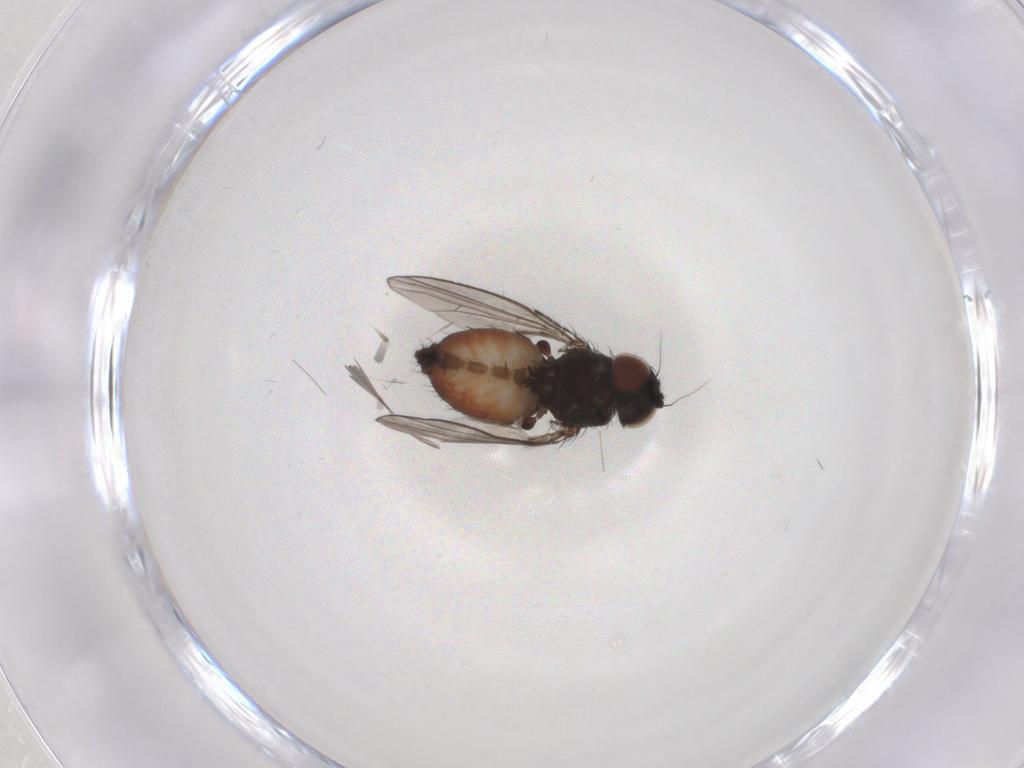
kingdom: Animalia
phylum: Arthropoda
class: Insecta
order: Diptera
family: Milichiidae
